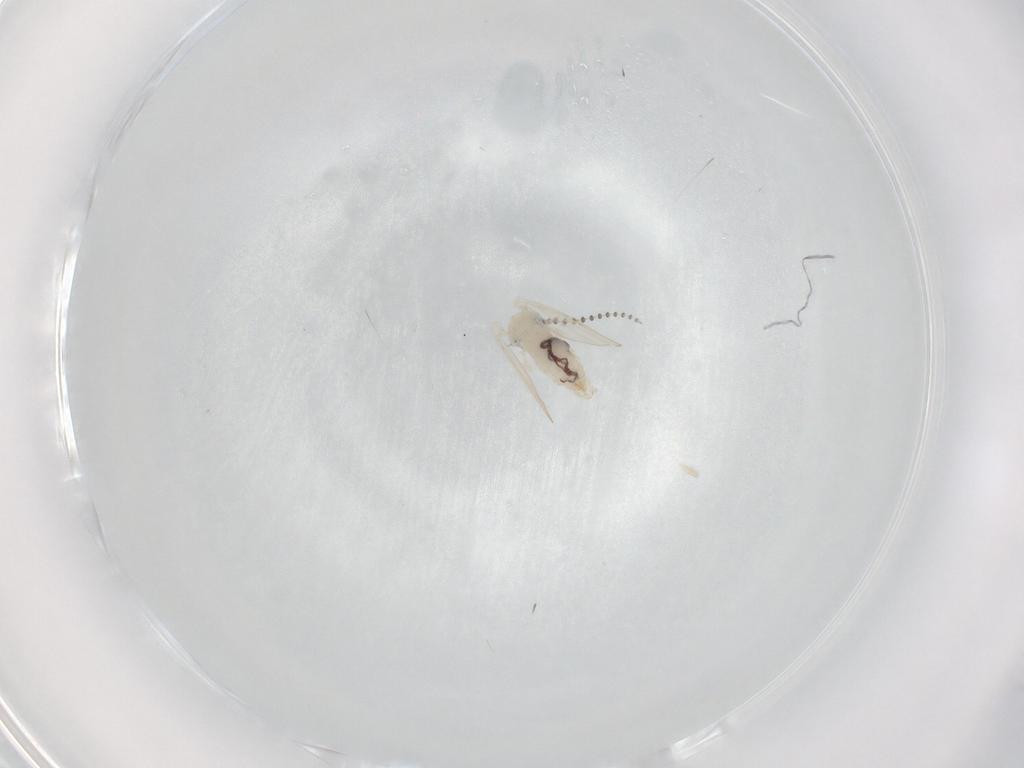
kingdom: Animalia
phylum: Arthropoda
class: Insecta
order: Diptera
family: Psychodidae
